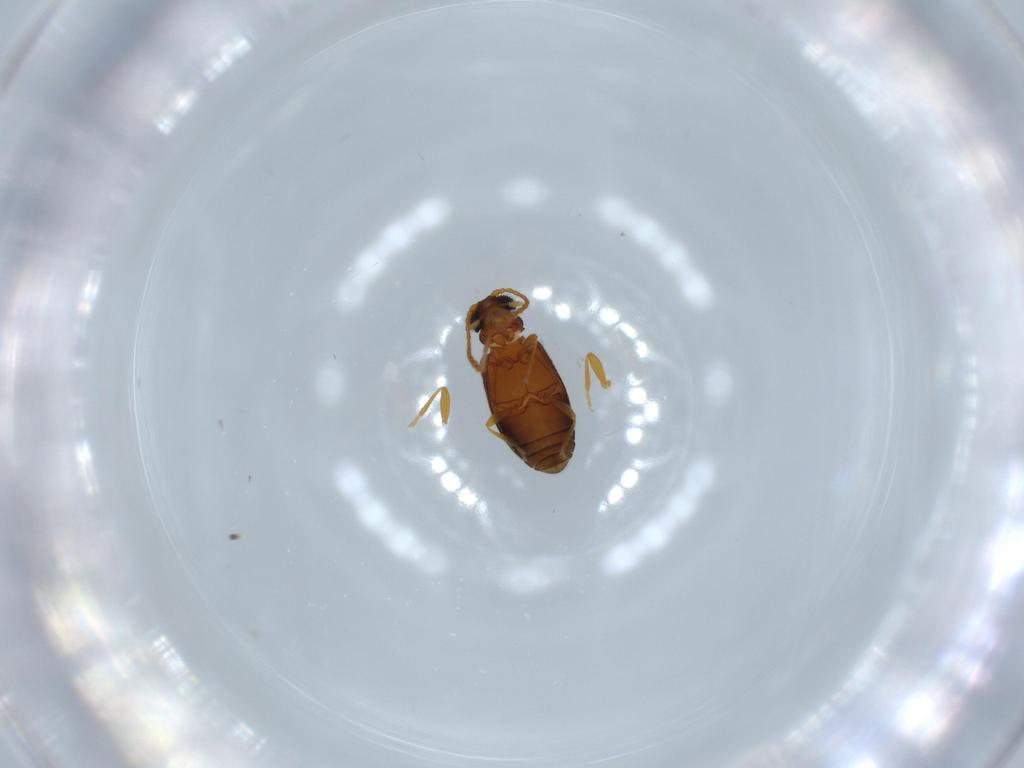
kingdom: Animalia
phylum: Arthropoda
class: Insecta
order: Coleoptera
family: Aderidae
